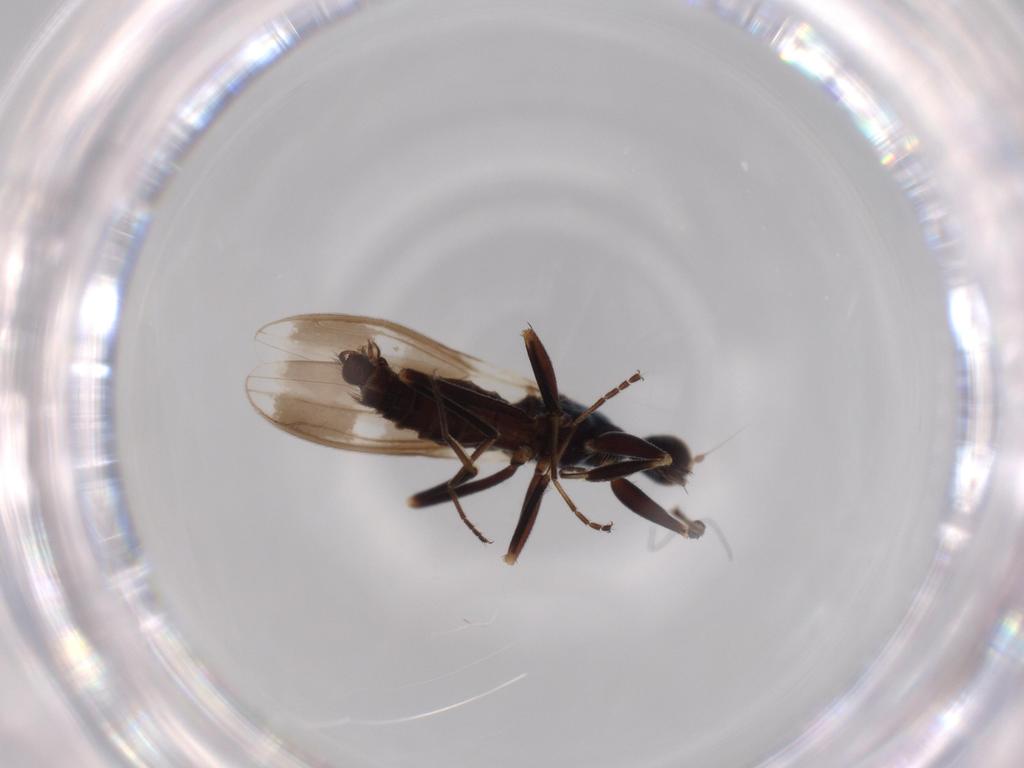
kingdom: Animalia
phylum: Arthropoda
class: Insecta
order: Diptera
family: Hybotidae
